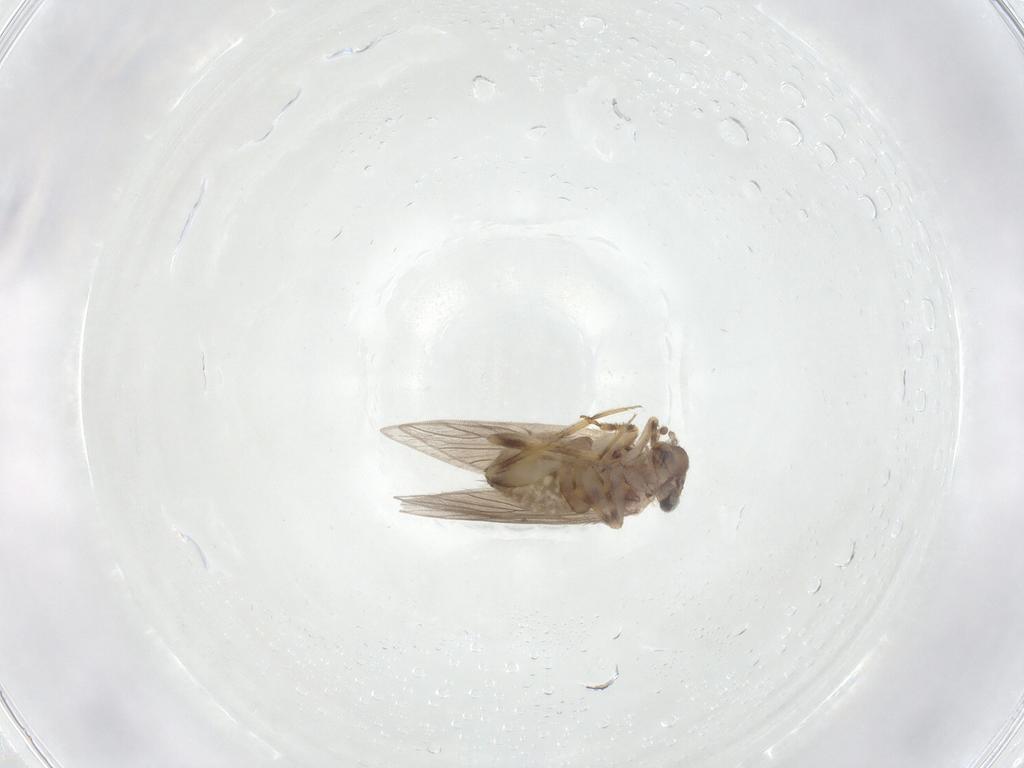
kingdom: Animalia
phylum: Arthropoda
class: Insecta
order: Psocodea
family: Lepidopsocidae
